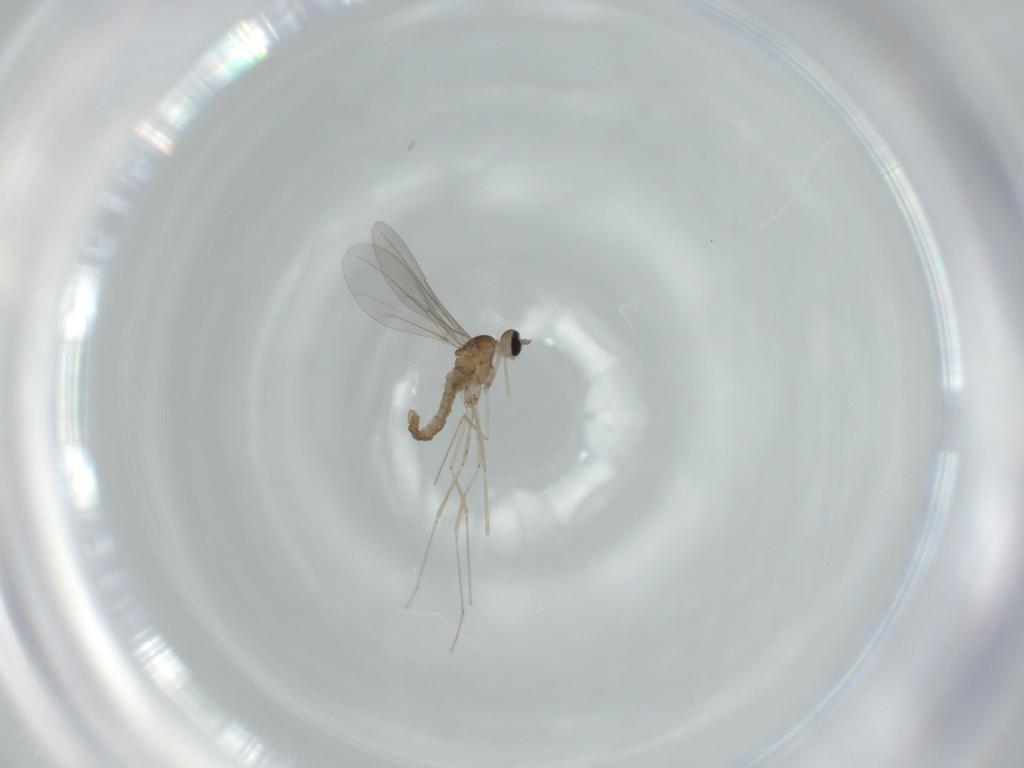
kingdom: Animalia
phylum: Arthropoda
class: Insecta
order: Diptera
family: Cecidomyiidae
